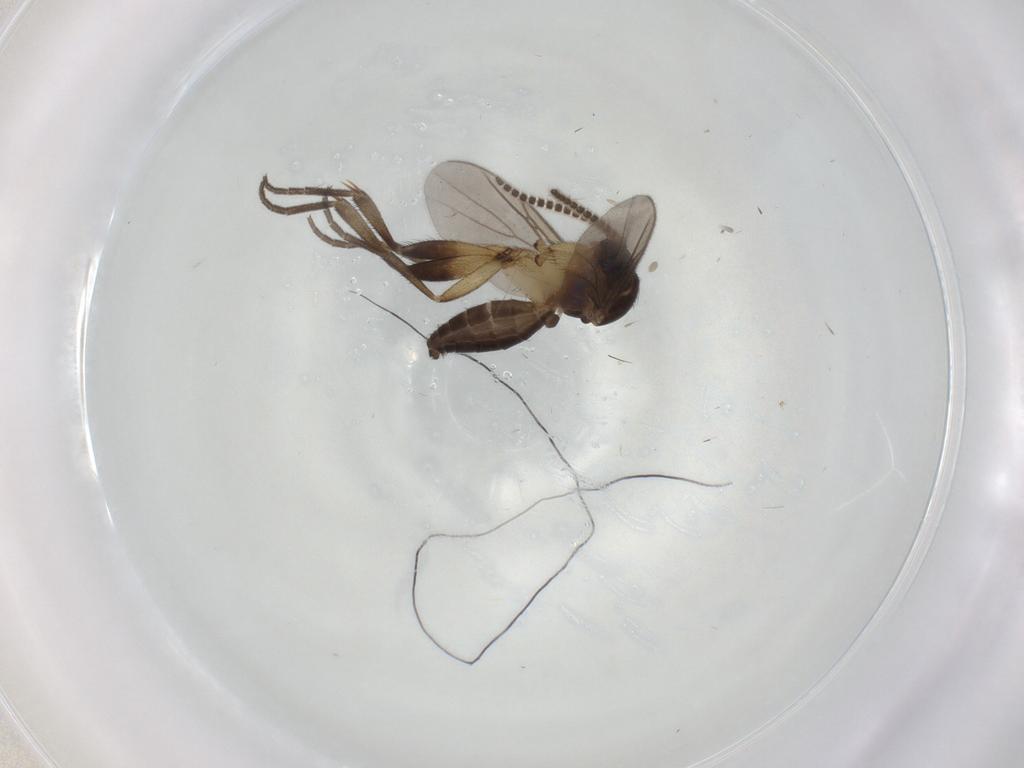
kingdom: Animalia
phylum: Arthropoda
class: Insecta
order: Diptera
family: Mycetophilidae
